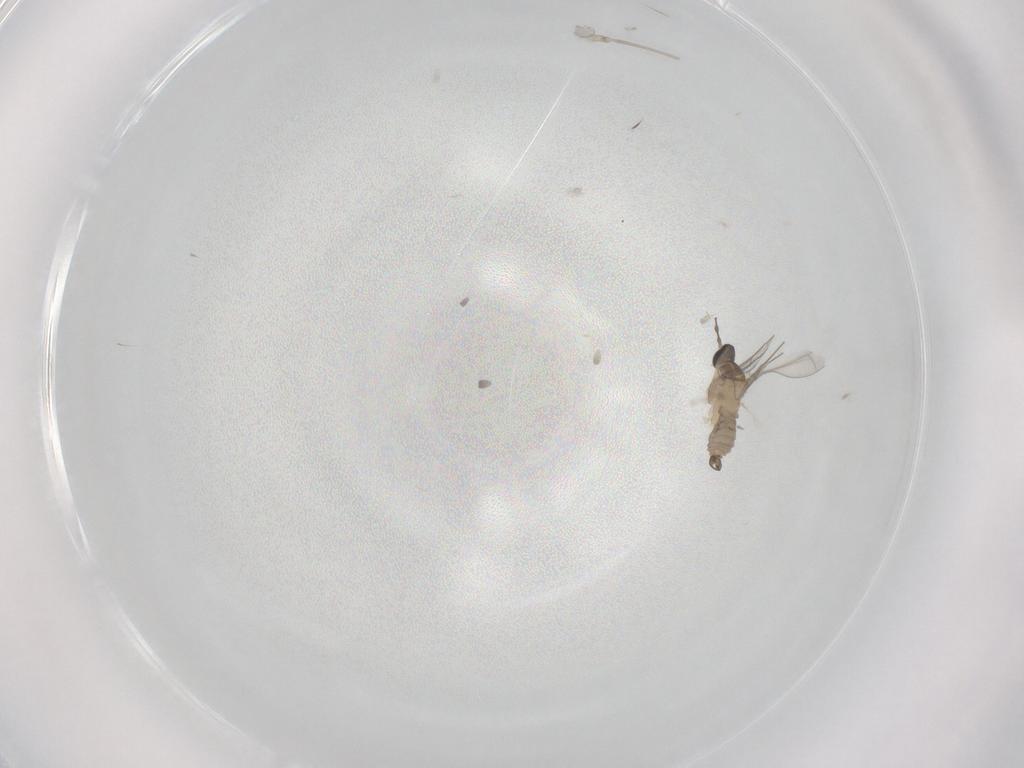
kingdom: Animalia
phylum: Arthropoda
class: Insecta
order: Diptera
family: Cecidomyiidae
